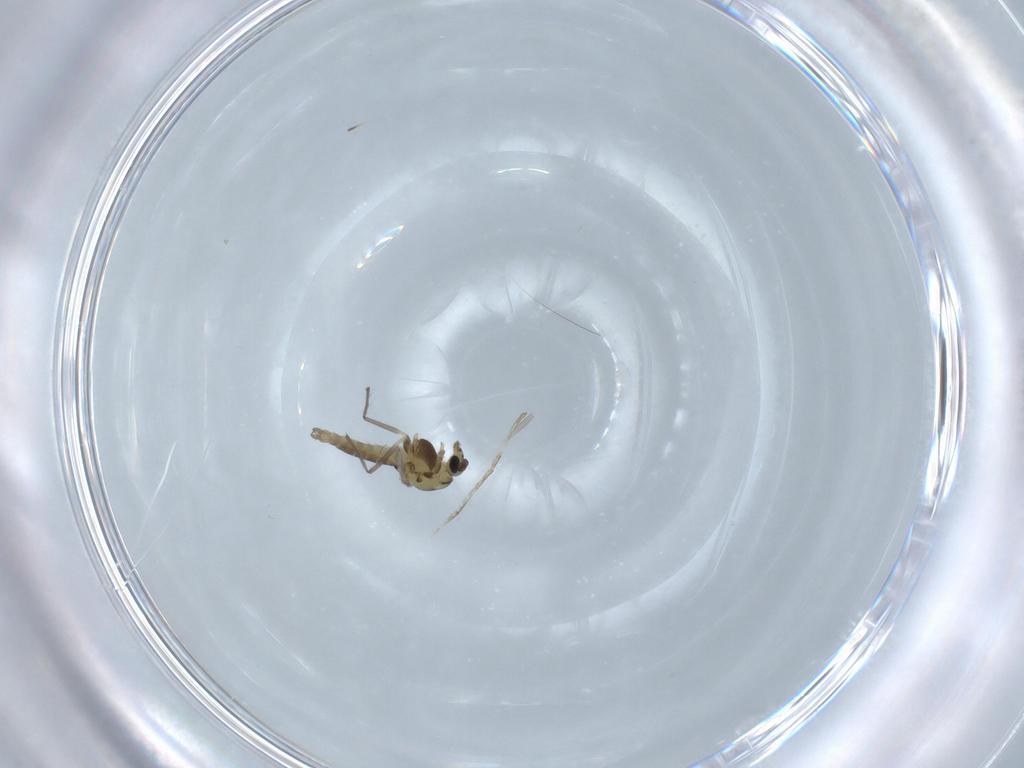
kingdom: Animalia
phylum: Arthropoda
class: Insecta
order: Diptera
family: Chironomidae
